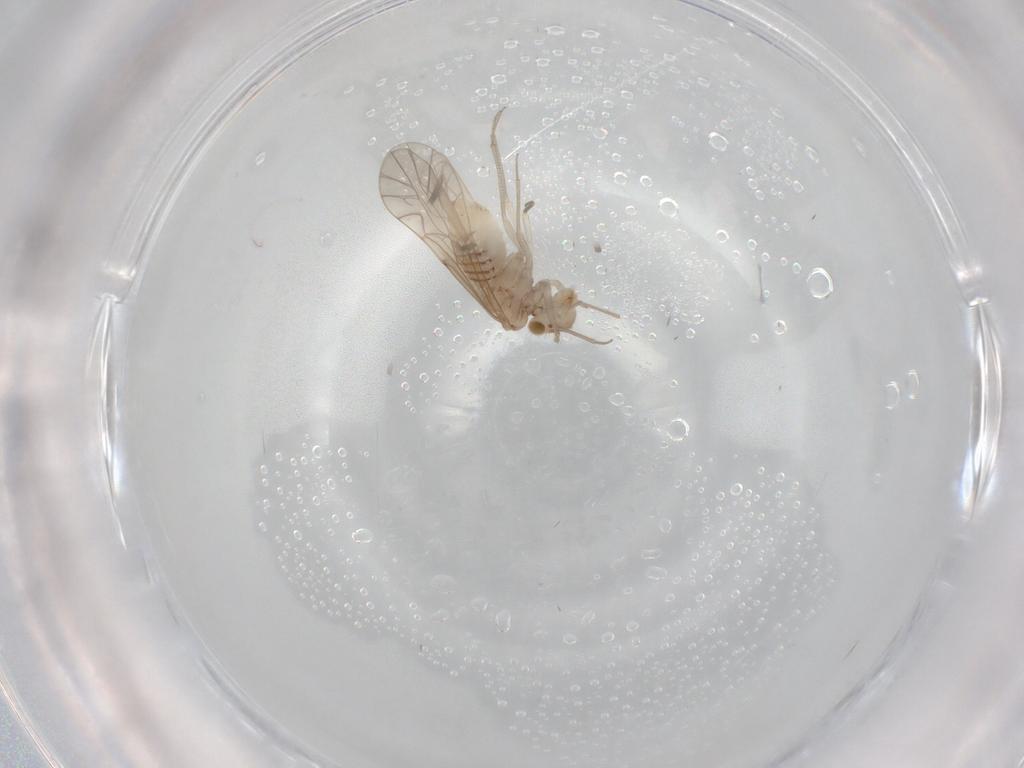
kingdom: Animalia
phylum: Arthropoda
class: Insecta
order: Psocodea
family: Lachesillidae
